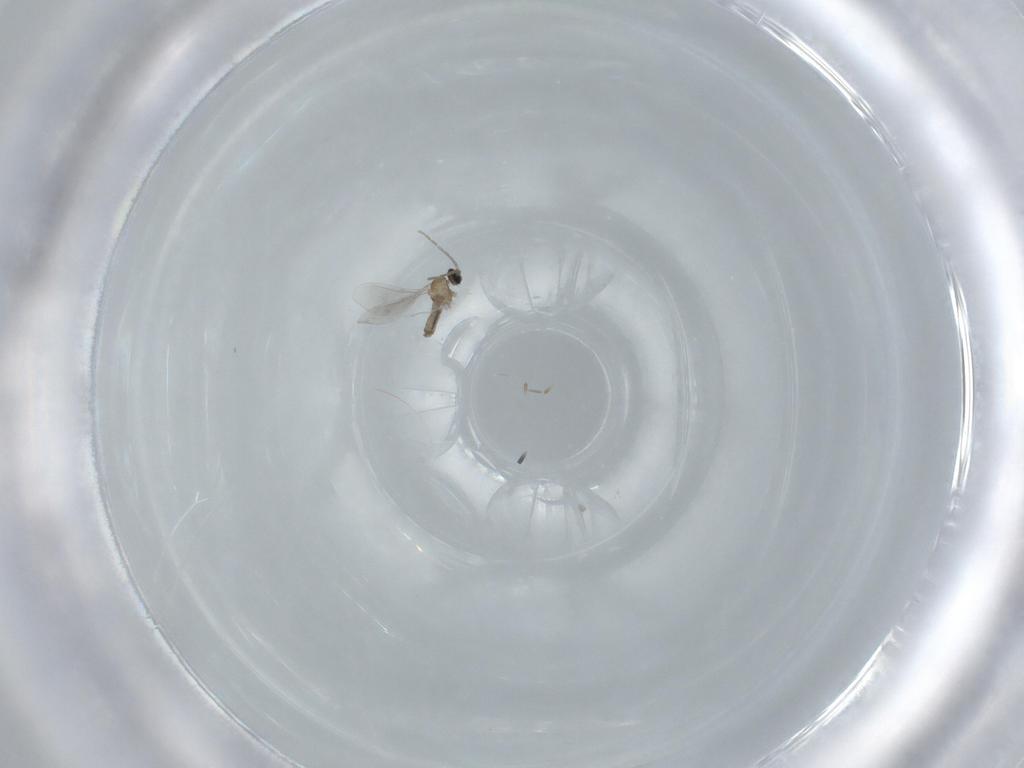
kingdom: Animalia
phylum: Arthropoda
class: Insecta
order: Diptera
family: Cecidomyiidae
